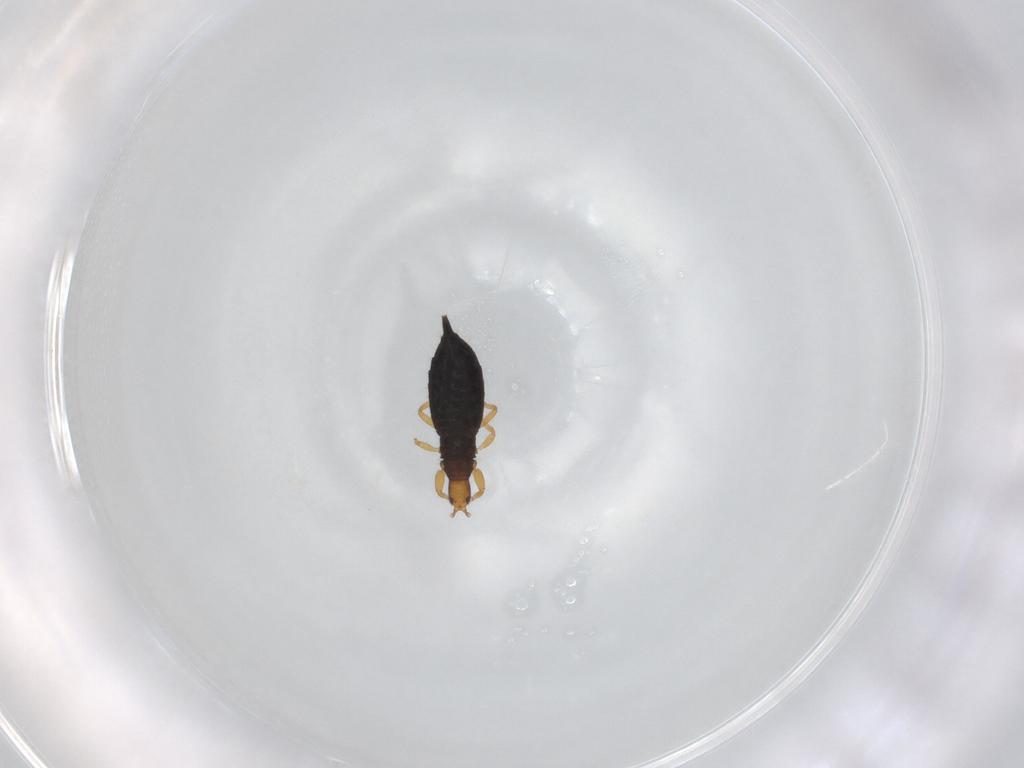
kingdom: Animalia
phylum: Arthropoda
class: Insecta
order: Thysanoptera
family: Phlaeothripidae
